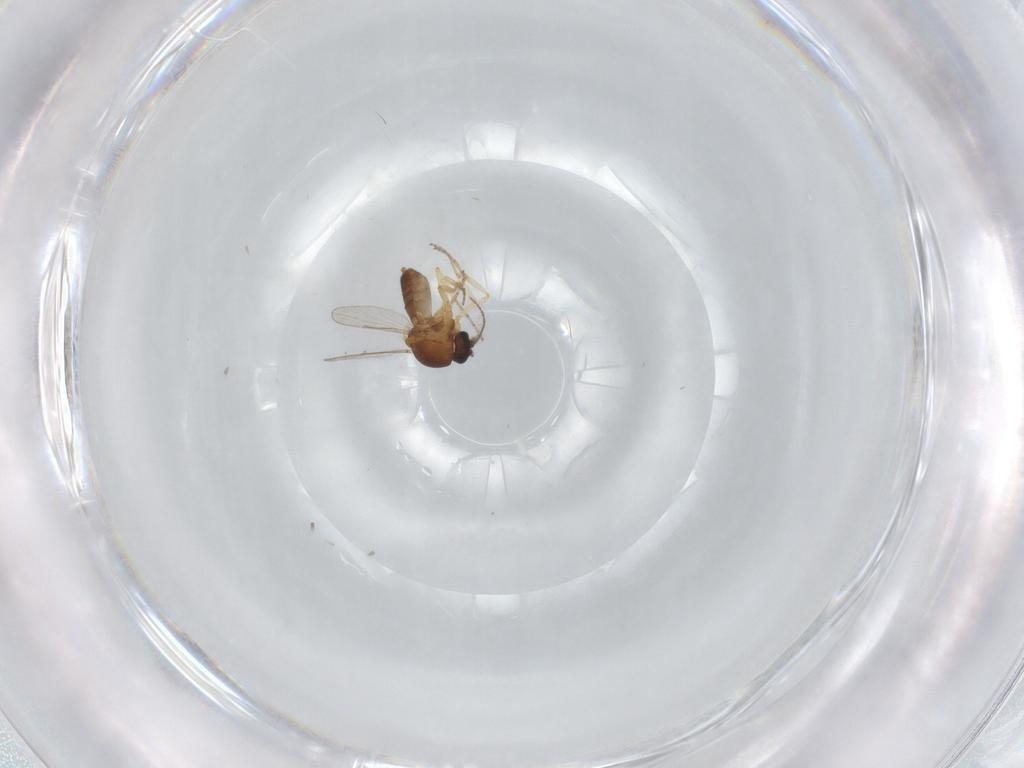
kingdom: Animalia
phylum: Arthropoda
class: Insecta
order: Diptera
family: Ceratopogonidae
